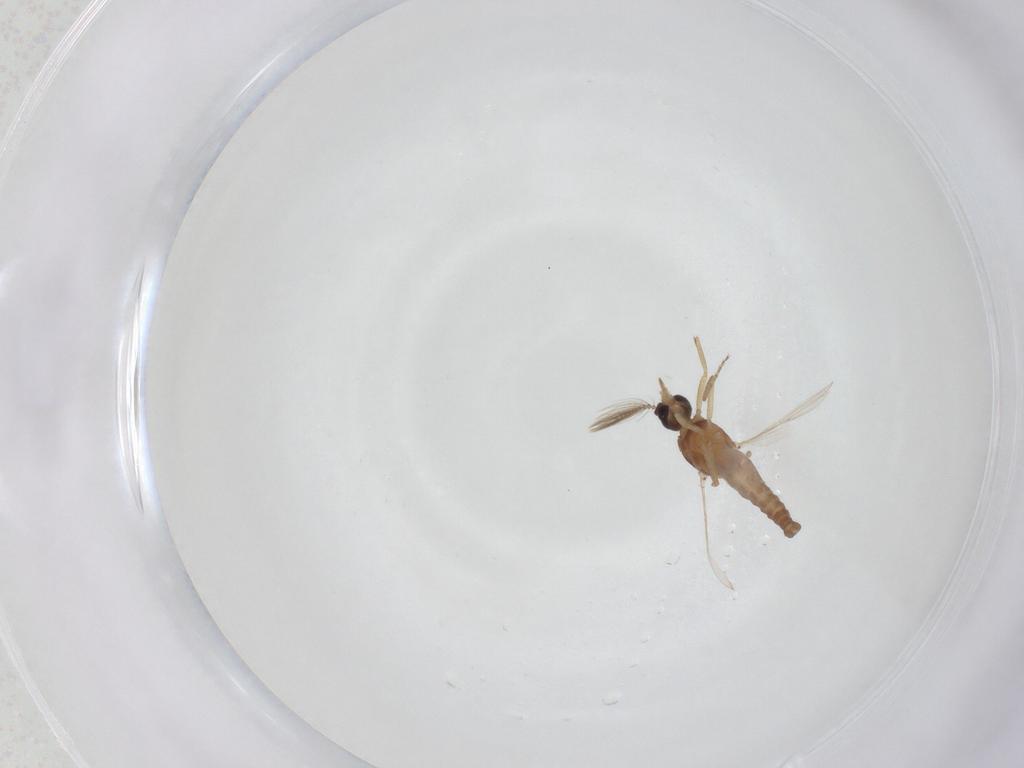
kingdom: Animalia
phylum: Arthropoda
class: Insecta
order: Diptera
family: Ceratopogonidae
